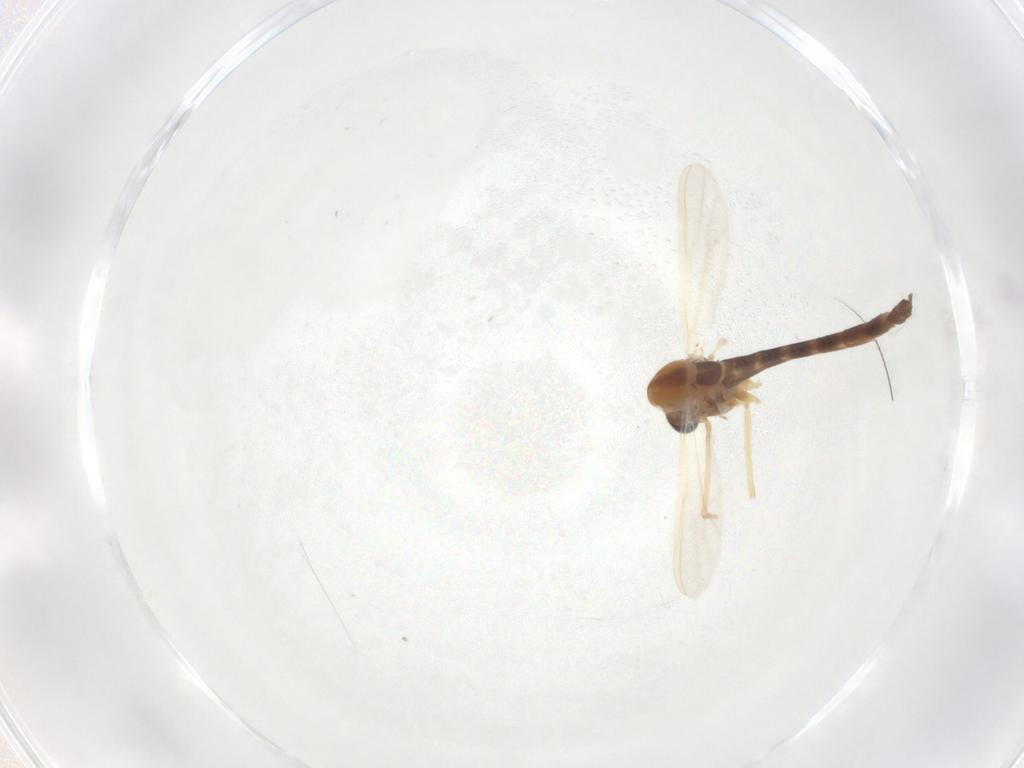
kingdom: Animalia
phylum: Arthropoda
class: Insecta
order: Diptera
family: Chironomidae
